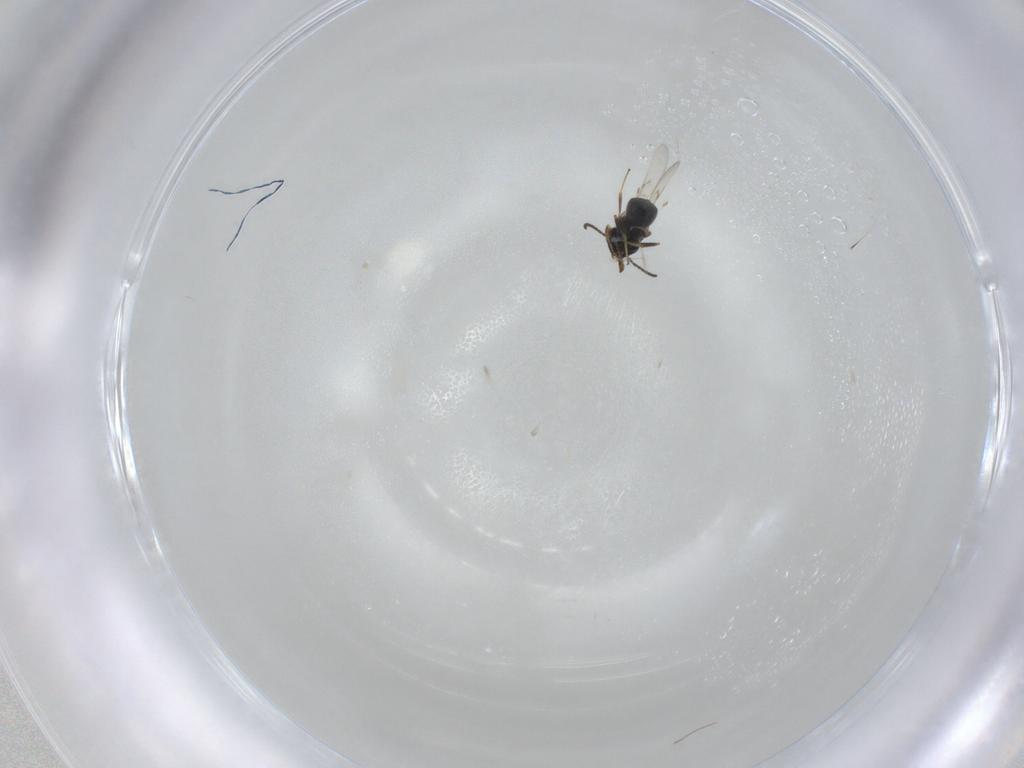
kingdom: Animalia
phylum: Arthropoda
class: Insecta
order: Hymenoptera
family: Scelionidae
